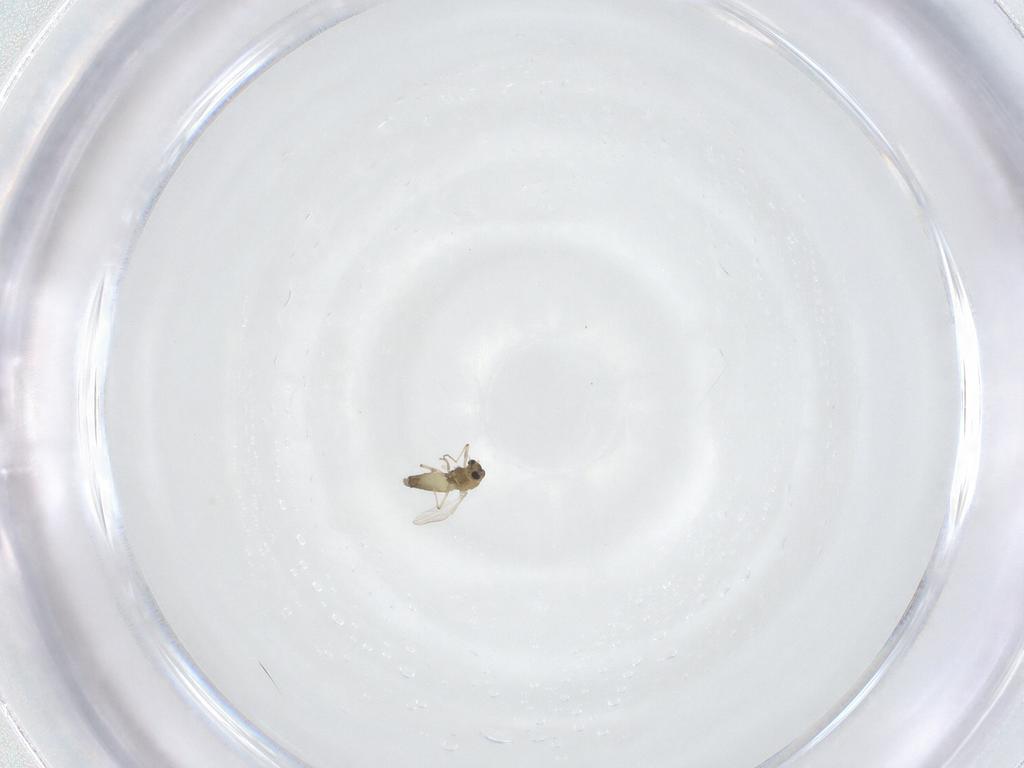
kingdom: Animalia
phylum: Arthropoda
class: Insecta
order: Diptera
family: Chironomidae
